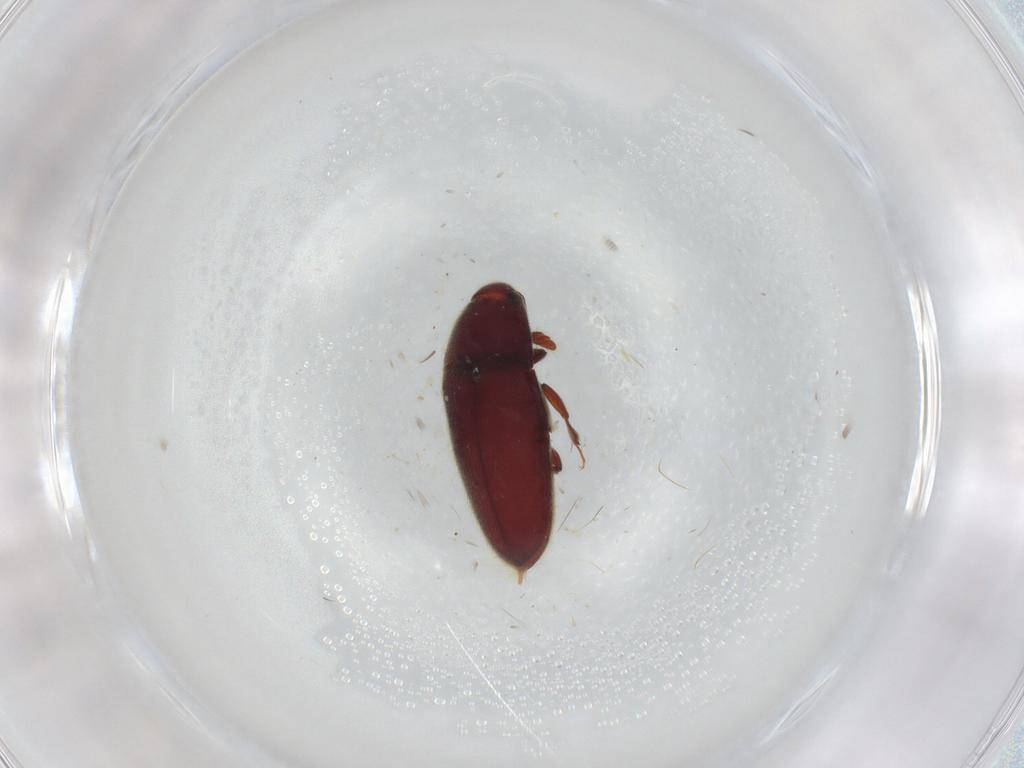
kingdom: Animalia
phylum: Arthropoda
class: Insecta
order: Coleoptera
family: Throscidae
